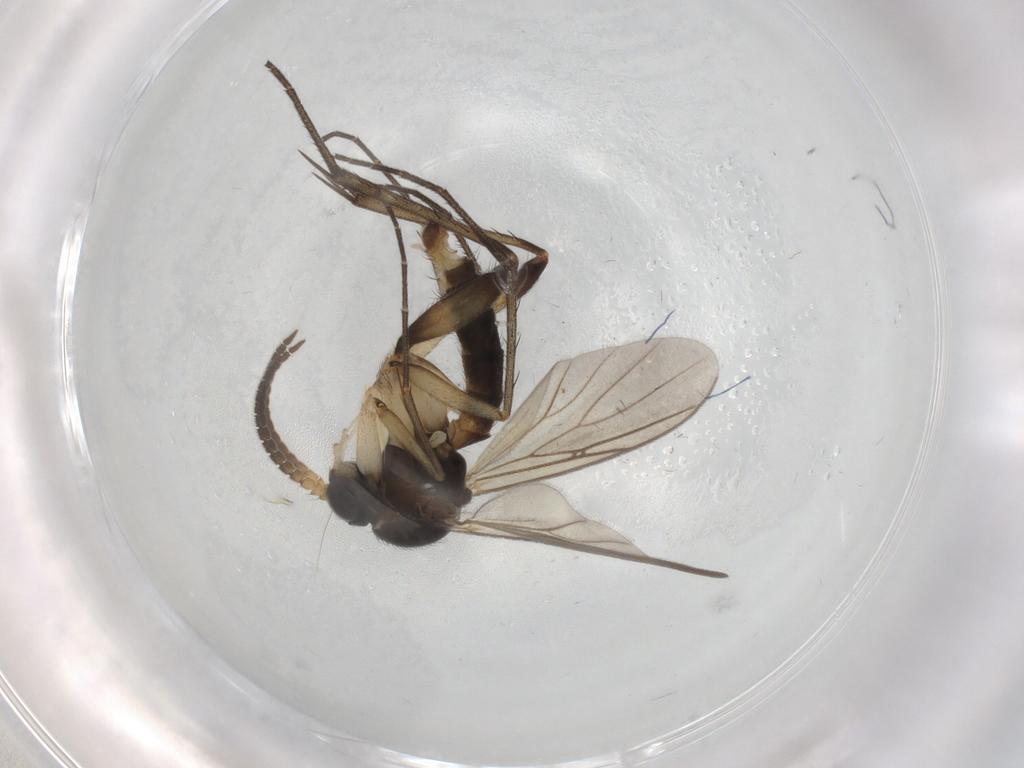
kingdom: Animalia
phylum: Arthropoda
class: Insecta
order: Diptera
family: Mycetophilidae
